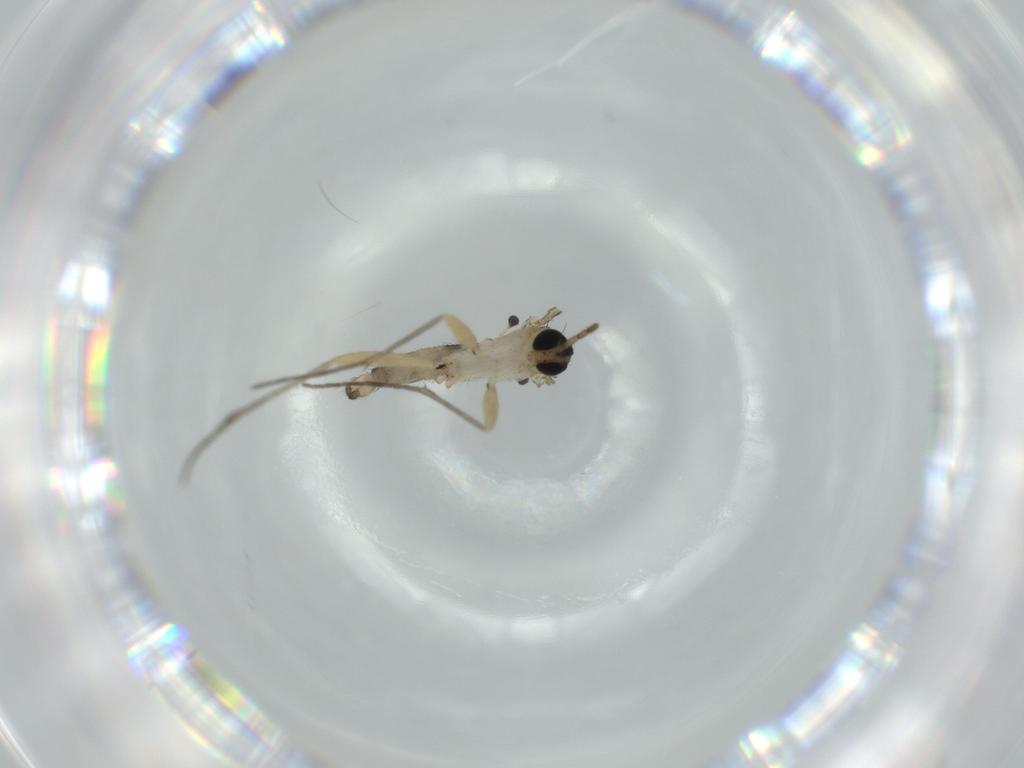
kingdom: Animalia
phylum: Arthropoda
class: Insecta
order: Diptera
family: Sciaridae
